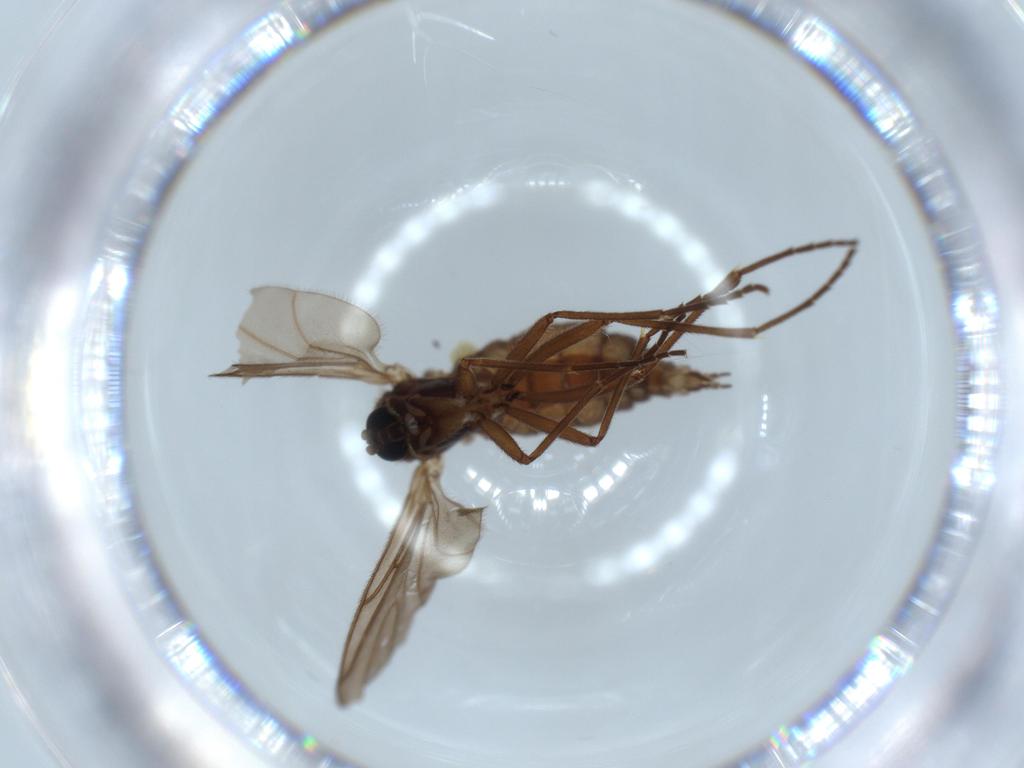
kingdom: Animalia
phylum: Arthropoda
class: Insecta
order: Diptera
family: Sciaridae
